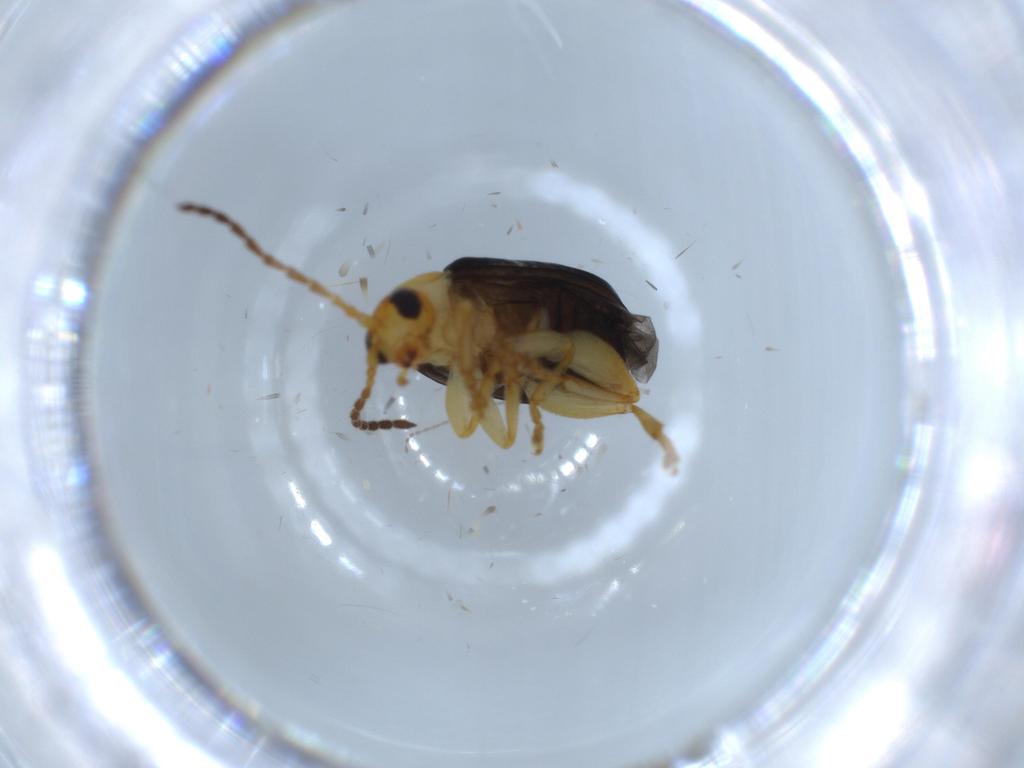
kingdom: Animalia
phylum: Arthropoda
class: Insecta
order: Coleoptera
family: Chrysomelidae
